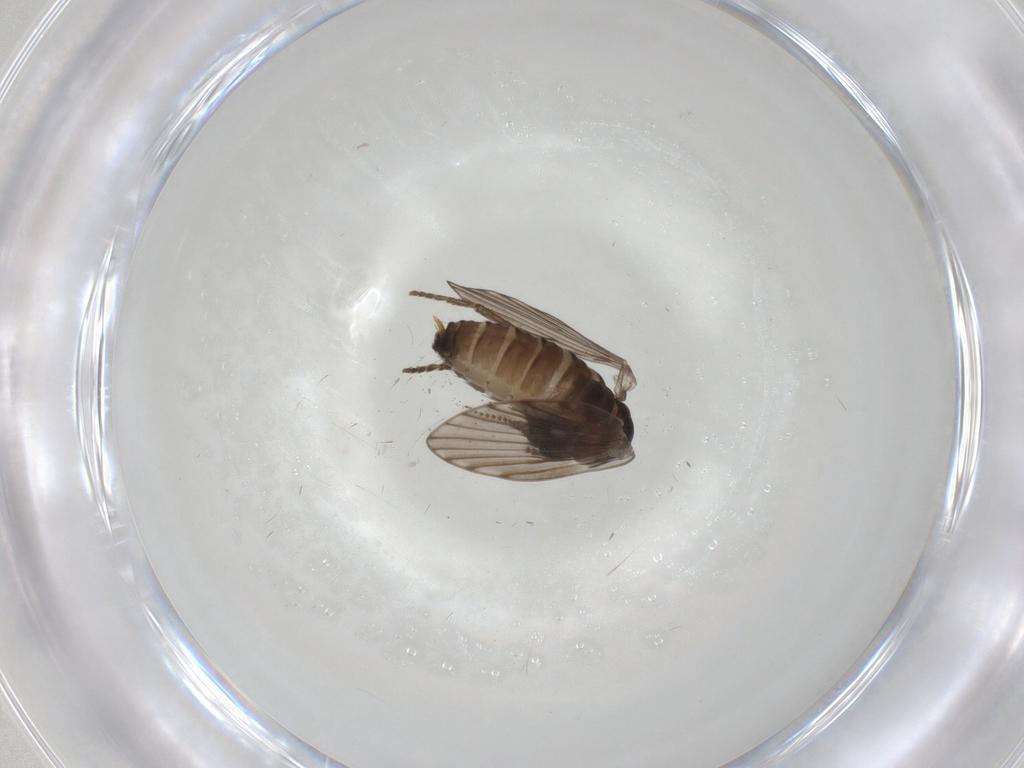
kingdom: Animalia
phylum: Arthropoda
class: Insecta
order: Diptera
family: Psychodidae
